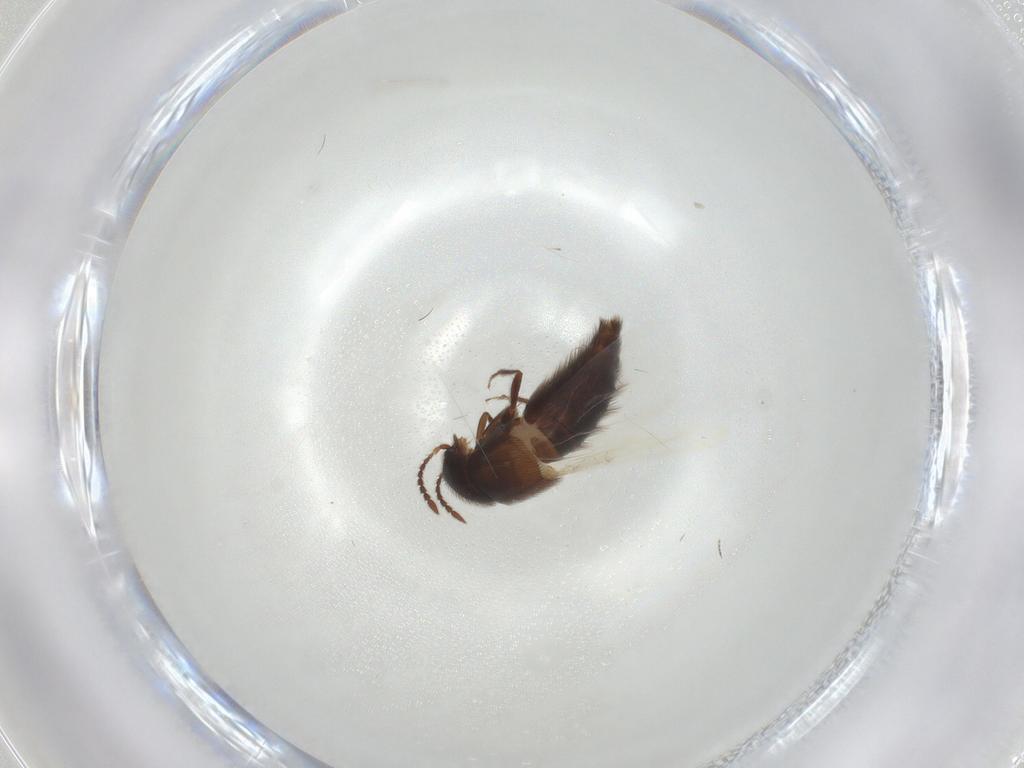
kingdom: Animalia
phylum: Arthropoda
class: Insecta
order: Coleoptera
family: Staphylinidae
